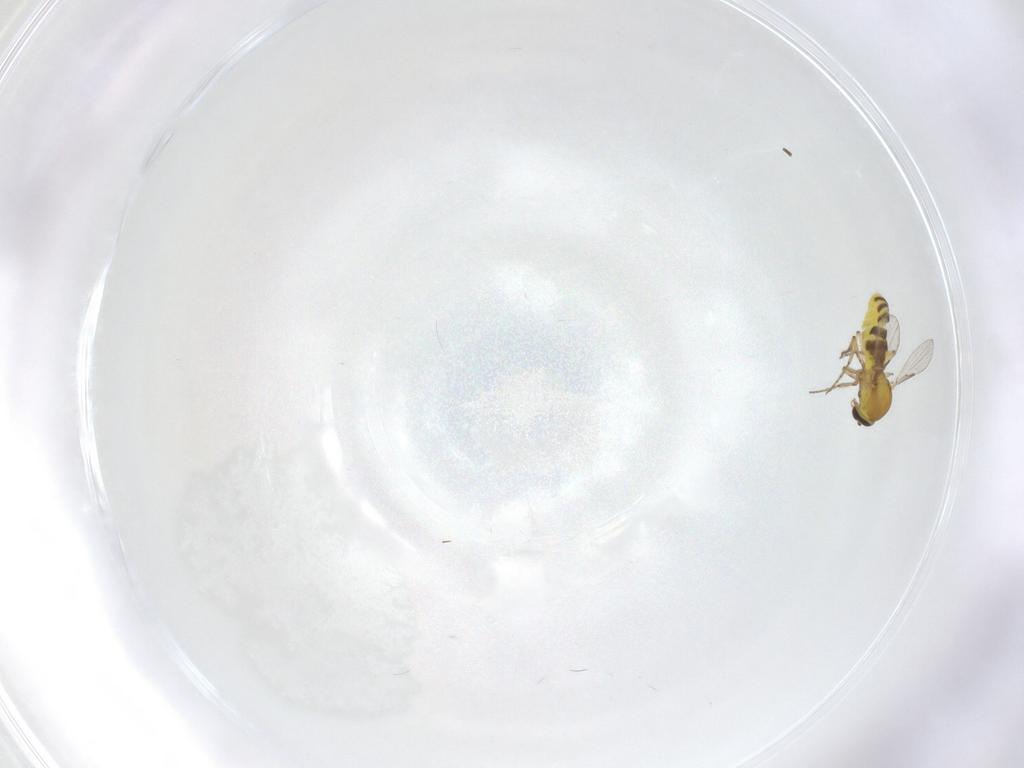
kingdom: Animalia
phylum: Arthropoda
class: Insecta
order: Diptera
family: Ceratopogonidae
